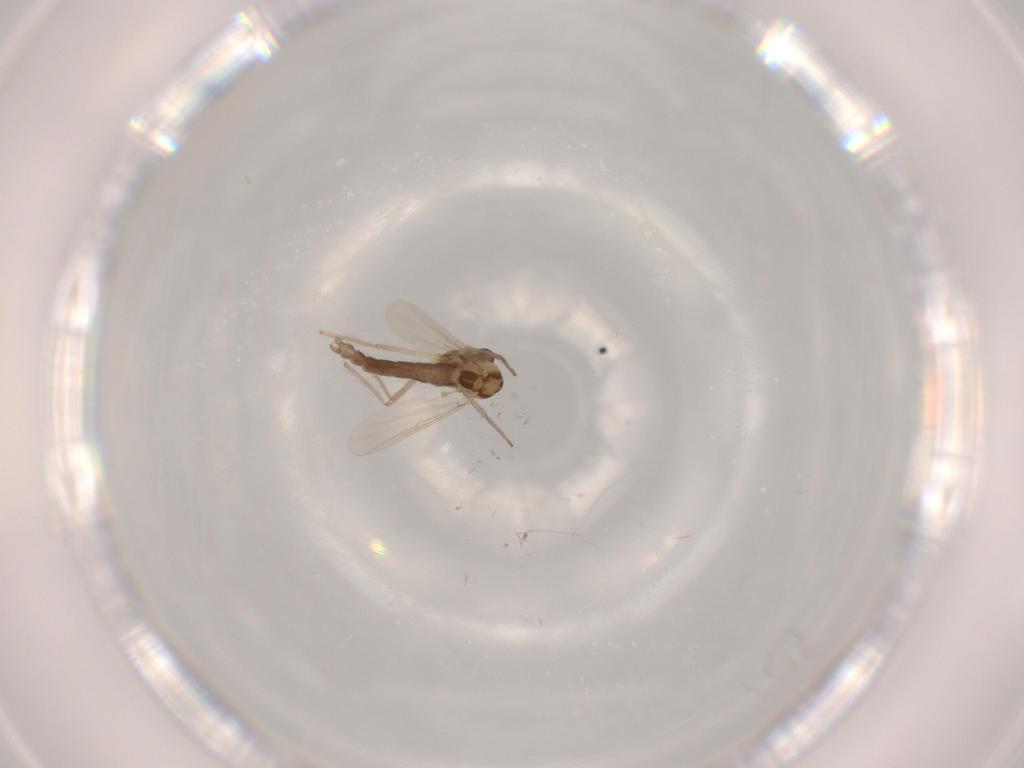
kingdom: Animalia
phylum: Arthropoda
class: Insecta
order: Diptera
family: Chironomidae
